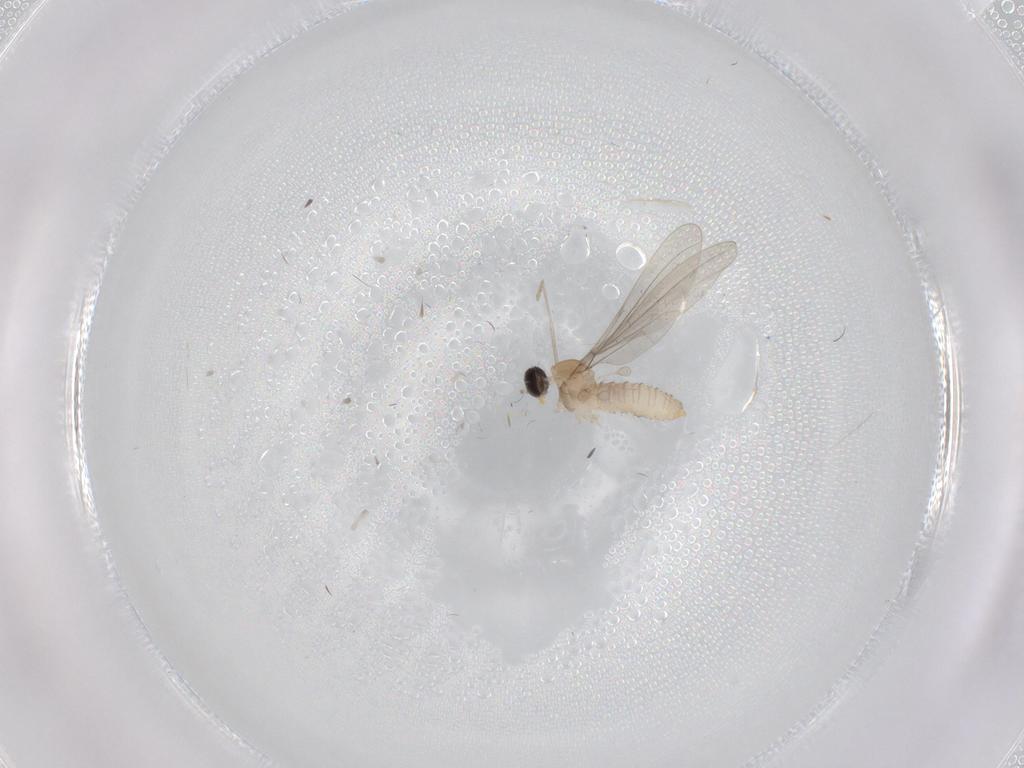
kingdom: Animalia
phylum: Arthropoda
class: Insecta
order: Diptera
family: Cecidomyiidae
